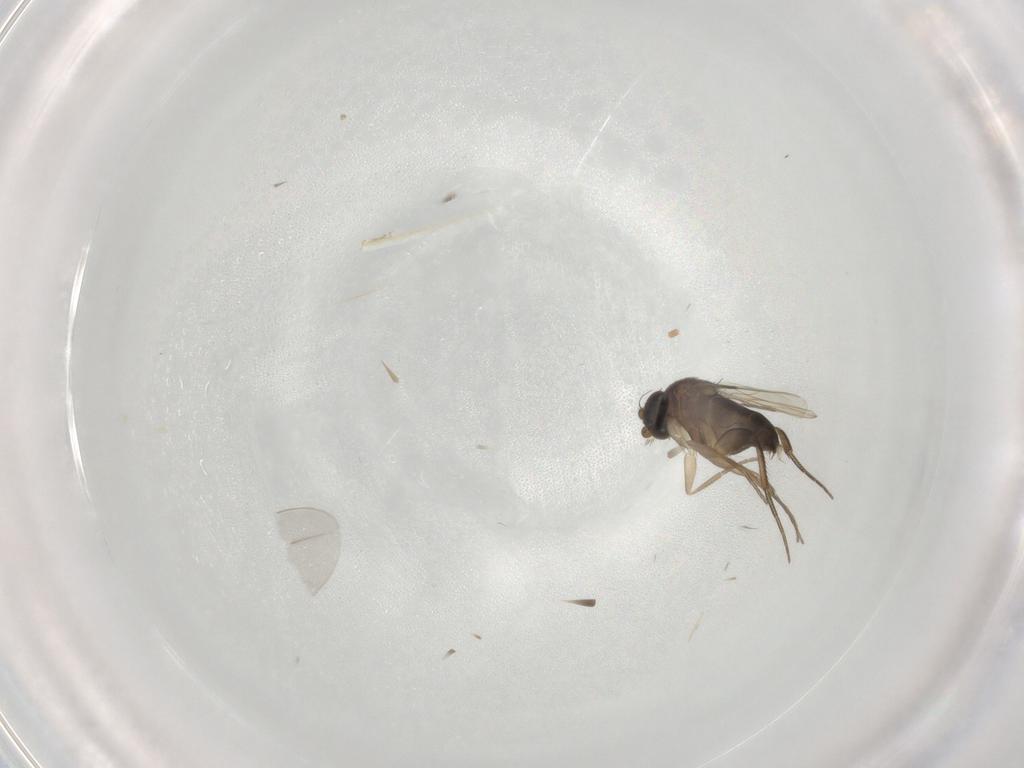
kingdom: Animalia
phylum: Arthropoda
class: Insecta
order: Diptera
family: Phoridae
